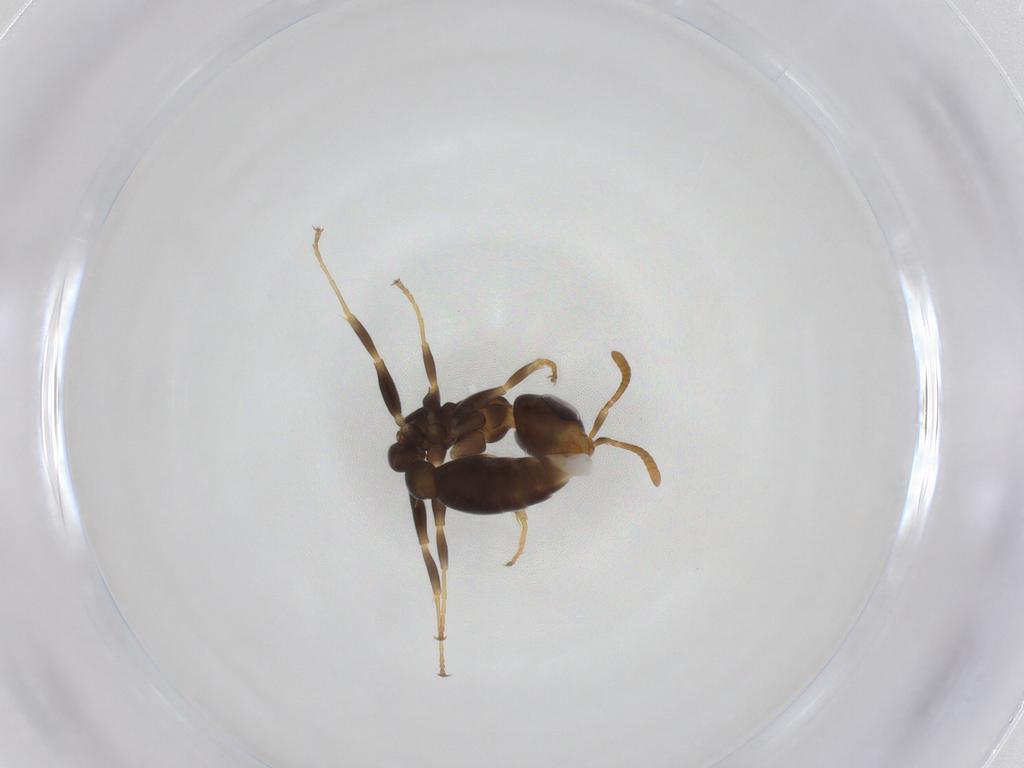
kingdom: Animalia
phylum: Arthropoda
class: Insecta
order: Hymenoptera
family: Formicidae
